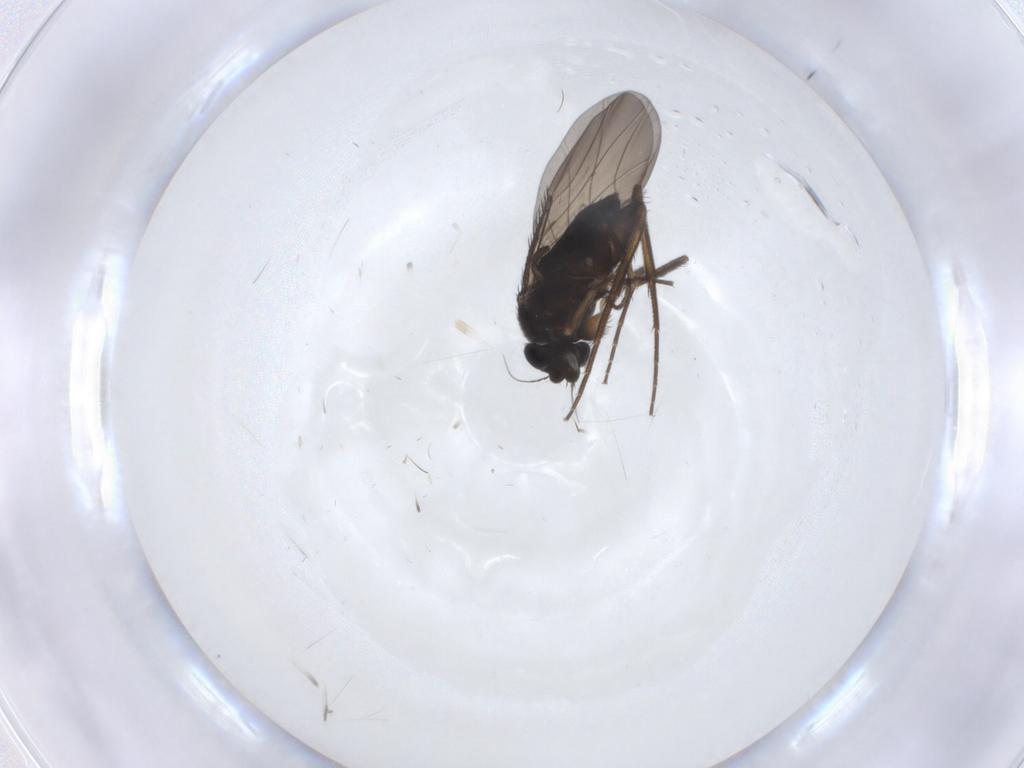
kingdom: Animalia
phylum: Arthropoda
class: Insecta
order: Diptera
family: Phoridae
